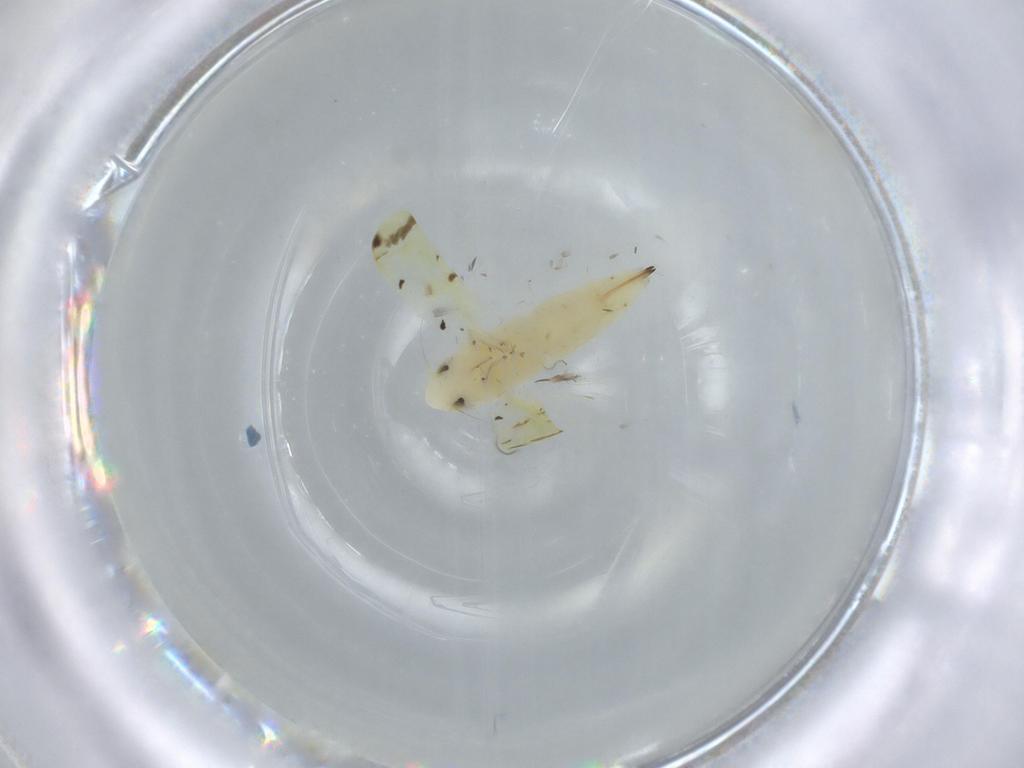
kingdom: Animalia
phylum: Arthropoda
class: Insecta
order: Hemiptera
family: Cicadellidae
